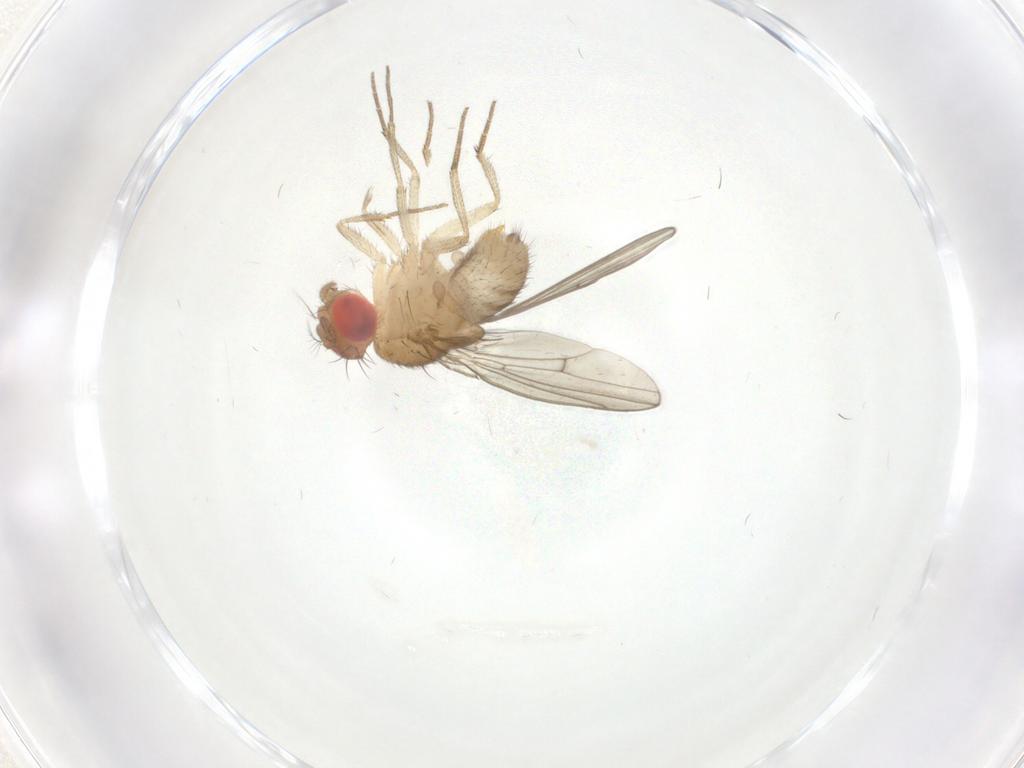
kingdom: Animalia
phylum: Arthropoda
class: Insecta
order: Diptera
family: Drosophilidae
